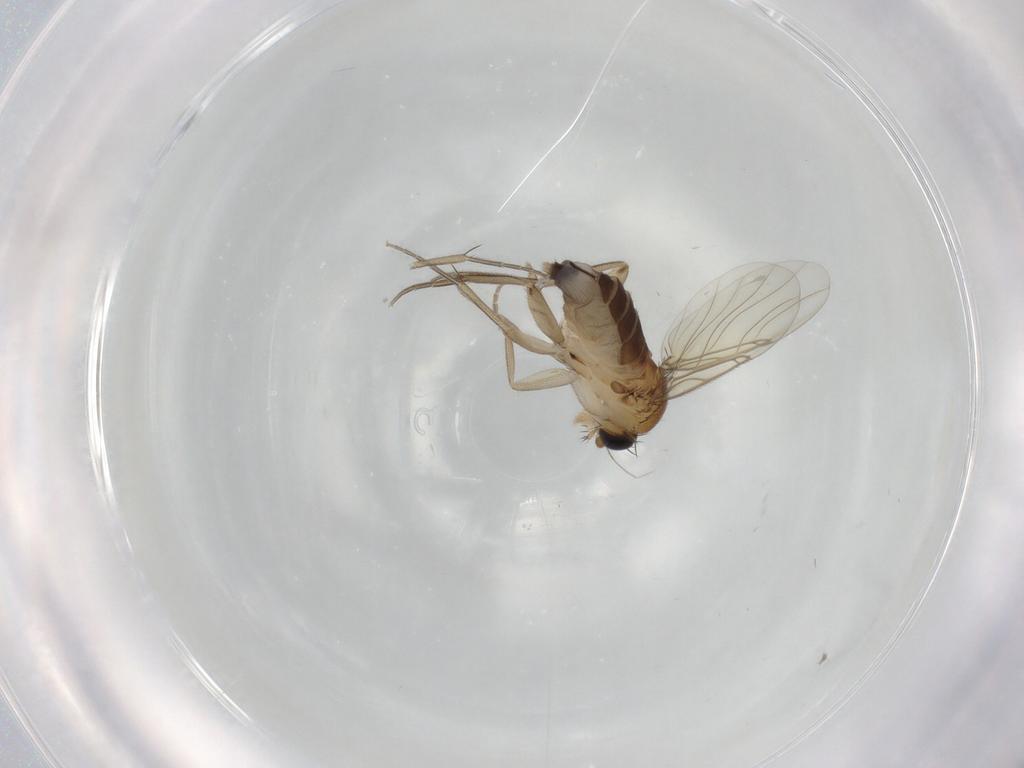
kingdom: Animalia
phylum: Arthropoda
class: Insecta
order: Diptera
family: Phoridae
